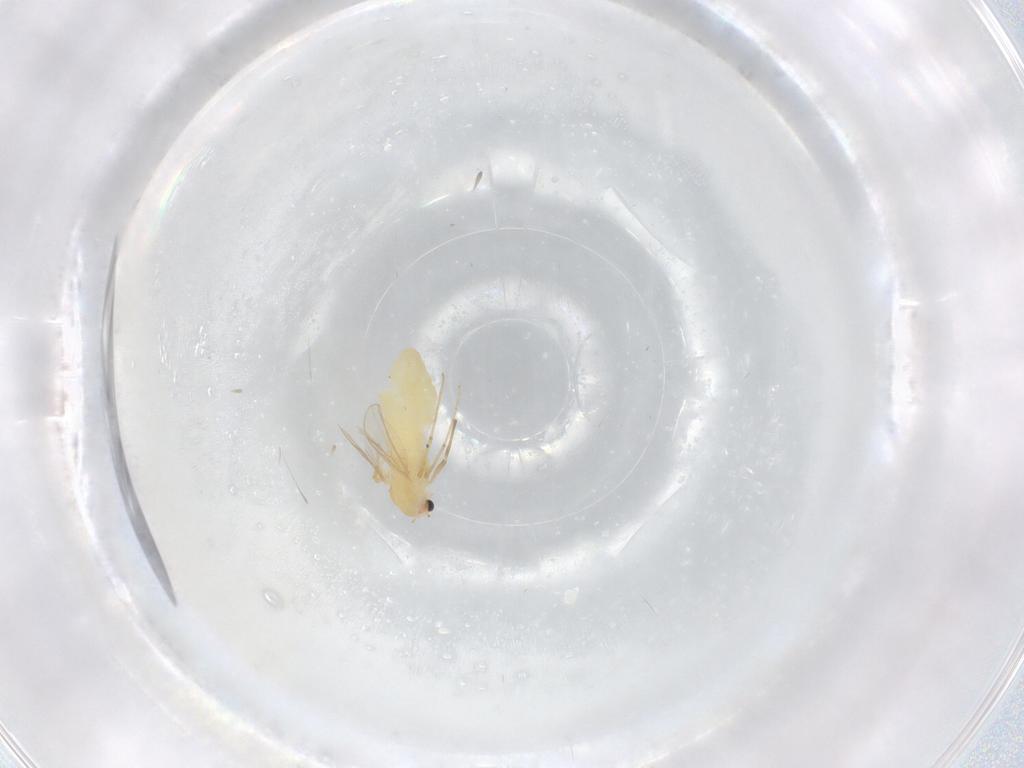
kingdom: Animalia
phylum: Arthropoda
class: Insecta
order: Diptera
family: Chironomidae
